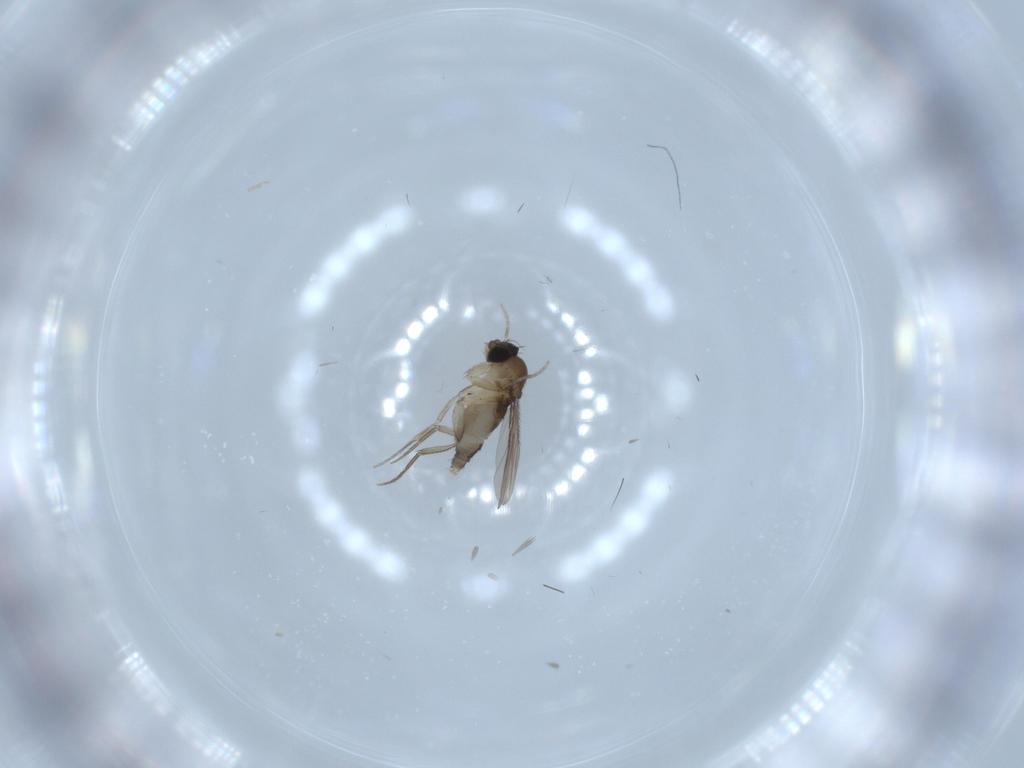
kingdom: Animalia
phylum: Arthropoda
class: Insecta
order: Diptera
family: Phoridae
